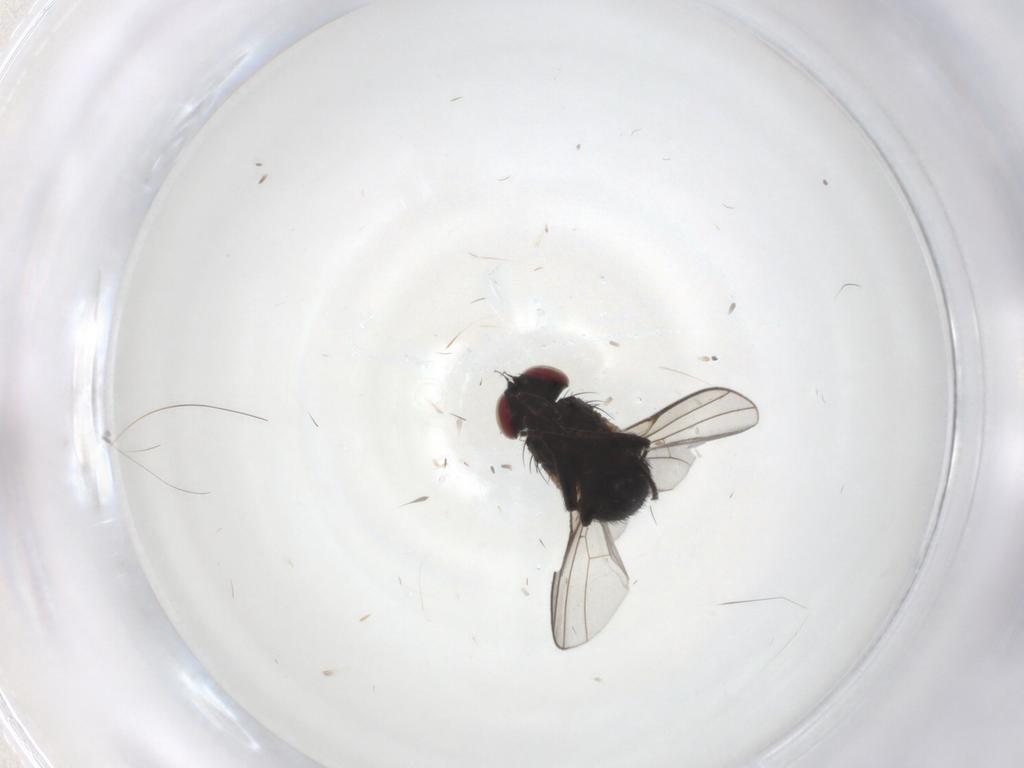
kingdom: Animalia
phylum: Arthropoda
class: Insecta
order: Diptera
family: Agromyzidae
